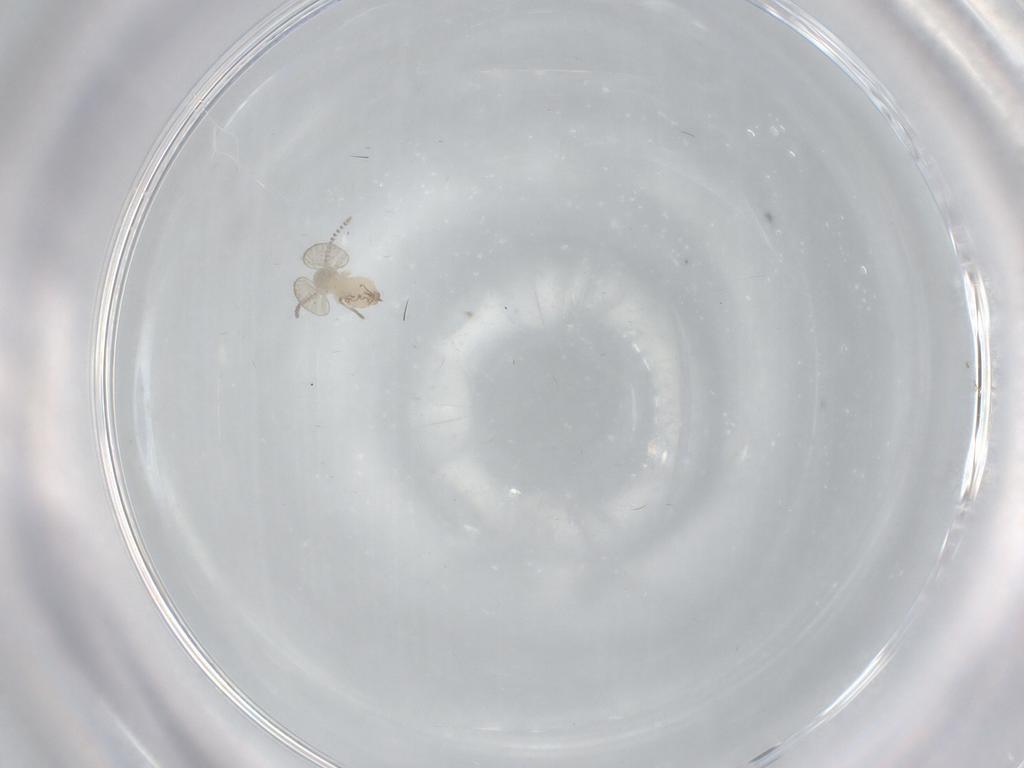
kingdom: Animalia
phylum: Arthropoda
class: Insecta
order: Diptera
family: Psychodidae
